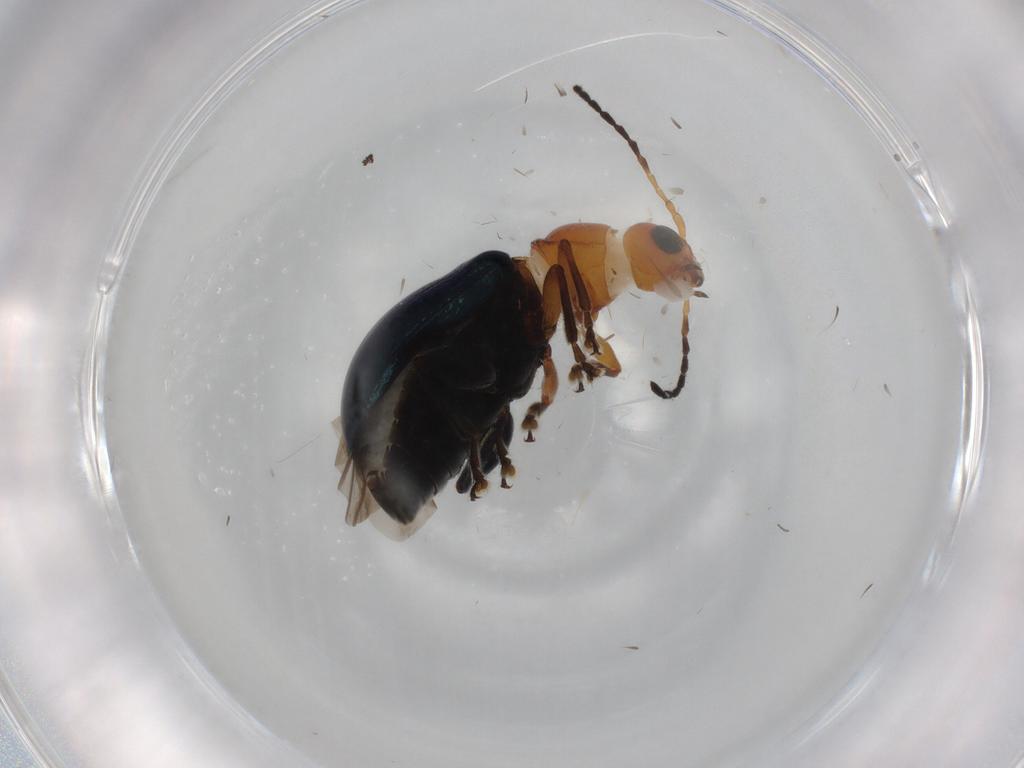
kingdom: Animalia
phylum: Arthropoda
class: Insecta
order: Coleoptera
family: Chrysomelidae
